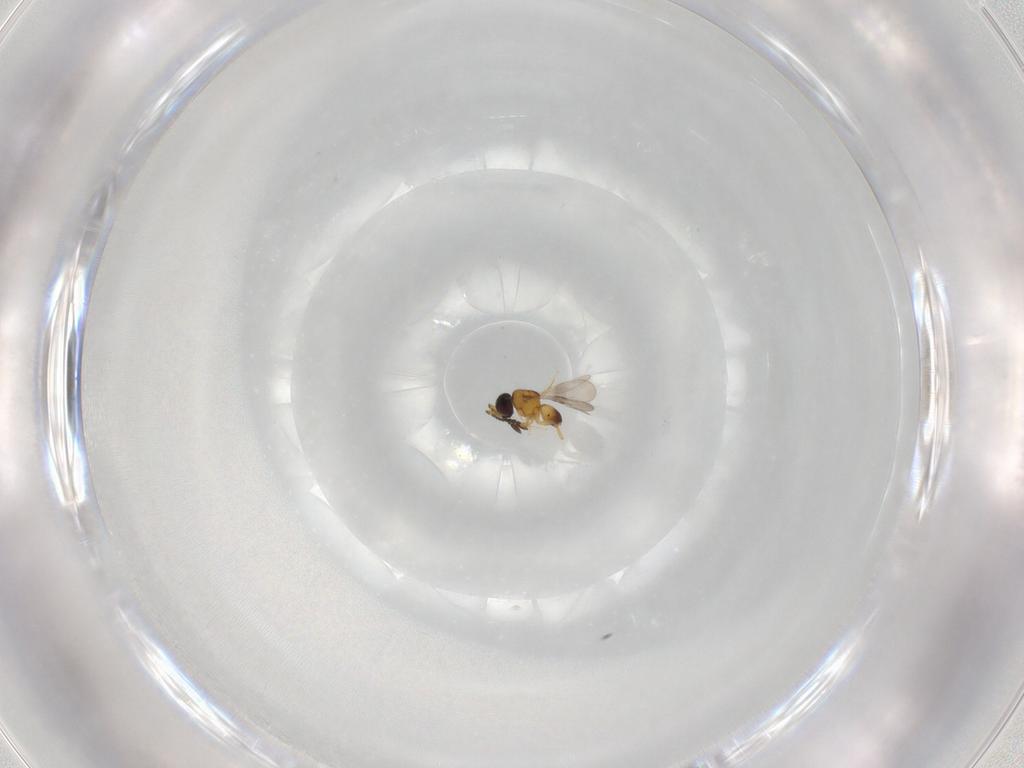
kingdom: Animalia
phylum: Arthropoda
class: Insecta
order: Hymenoptera
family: Ceraphronidae
